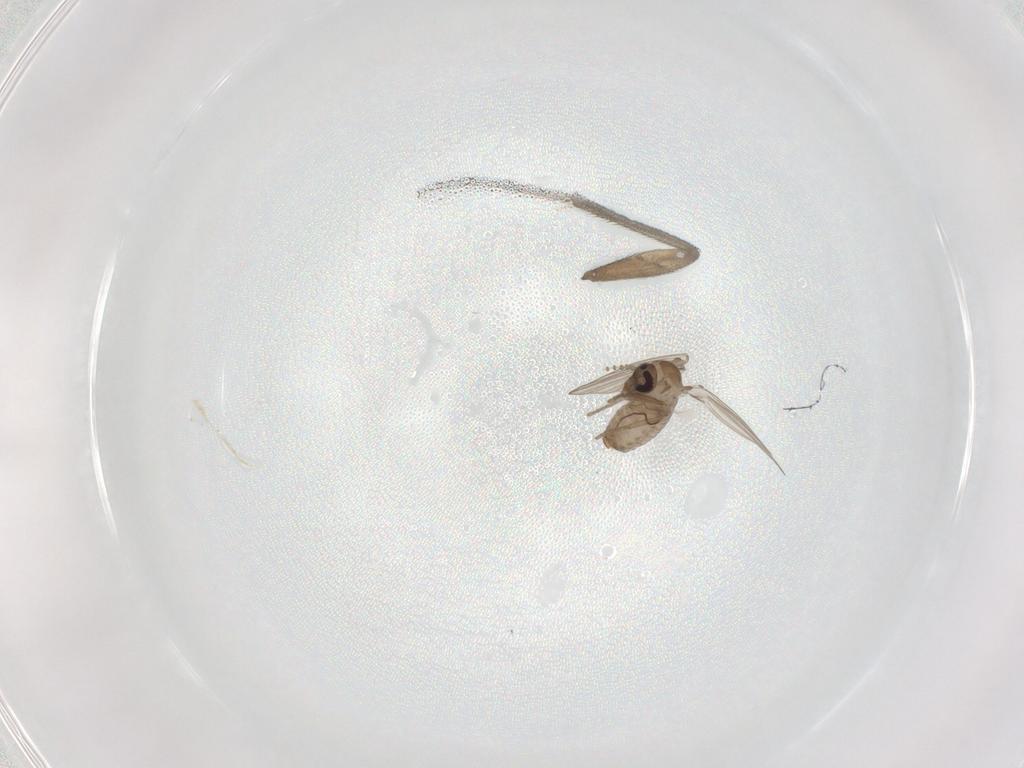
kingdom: Animalia
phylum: Arthropoda
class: Insecta
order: Diptera
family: Psychodidae
